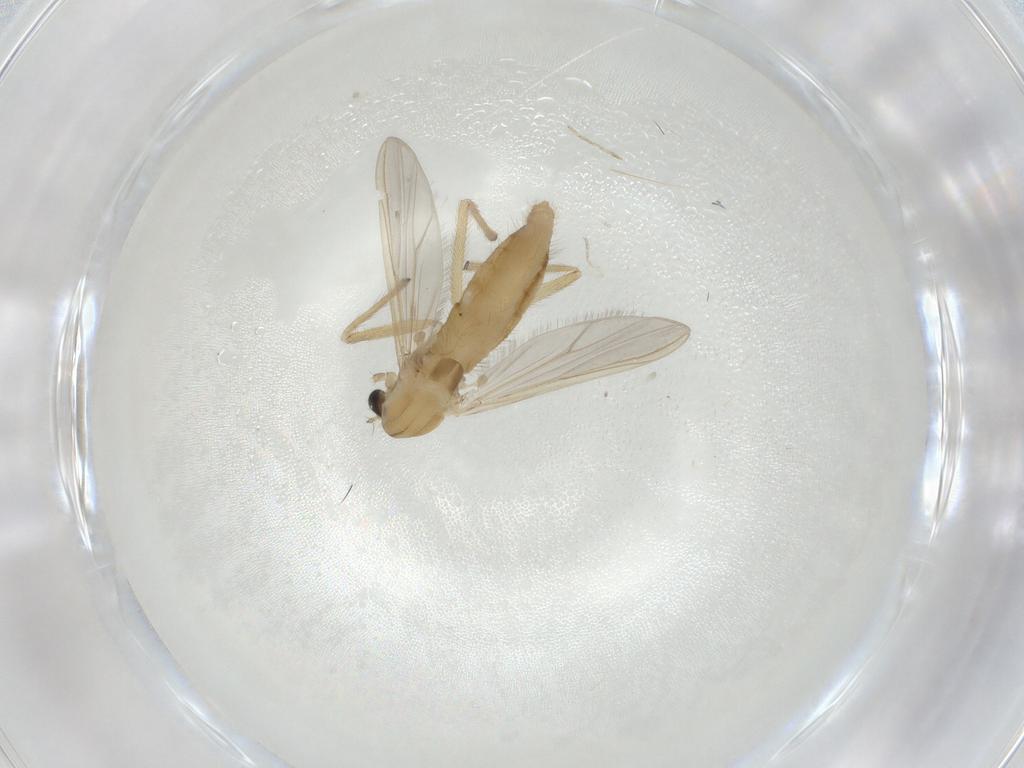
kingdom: Animalia
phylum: Arthropoda
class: Insecta
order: Diptera
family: Chironomidae
